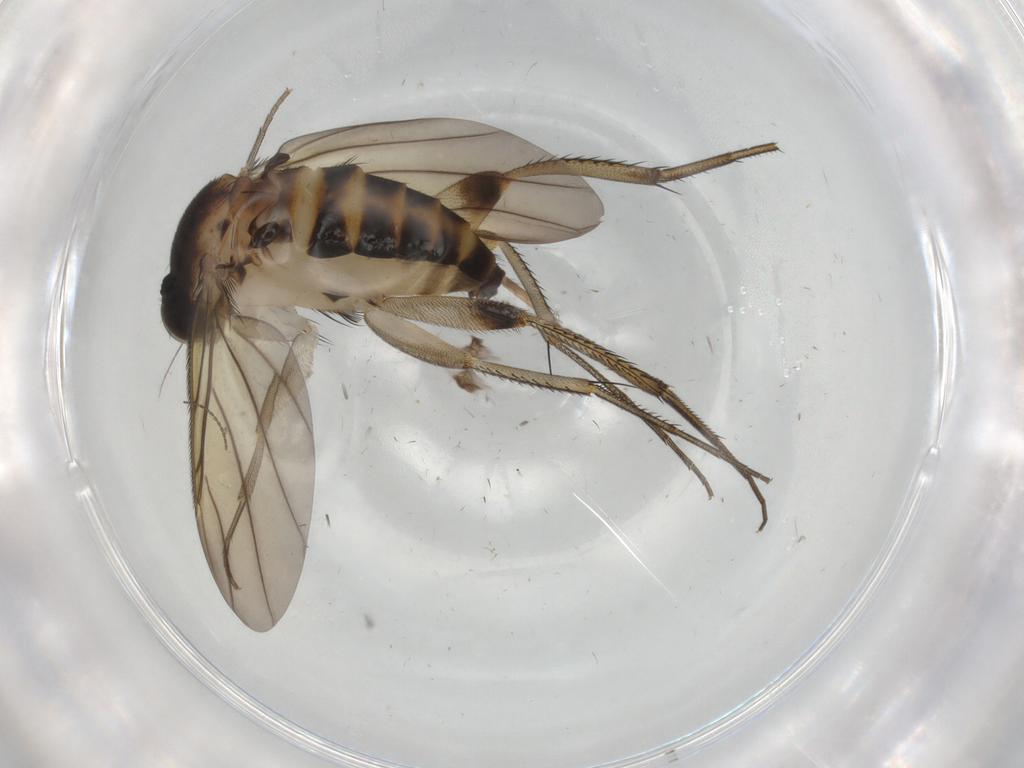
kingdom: Animalia
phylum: Arthropoda
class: Insecta
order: Diptera
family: Phoridae
